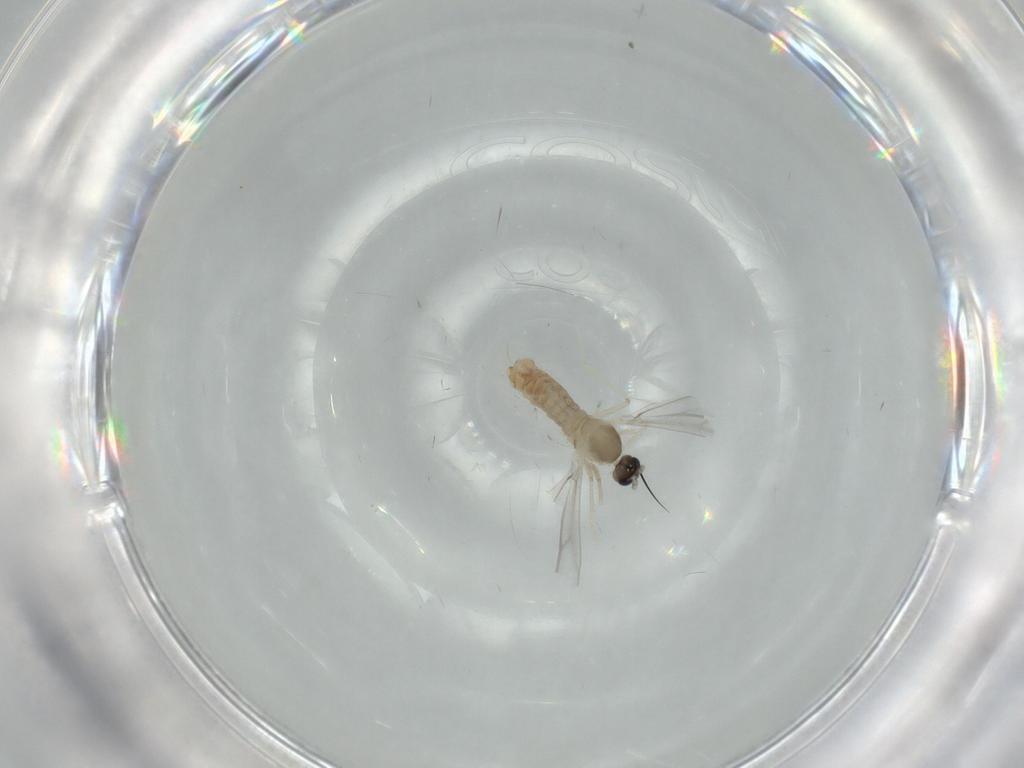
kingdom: Animalia
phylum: Arthropoda
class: Insecta
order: Diptera
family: Cecidomyiidae
